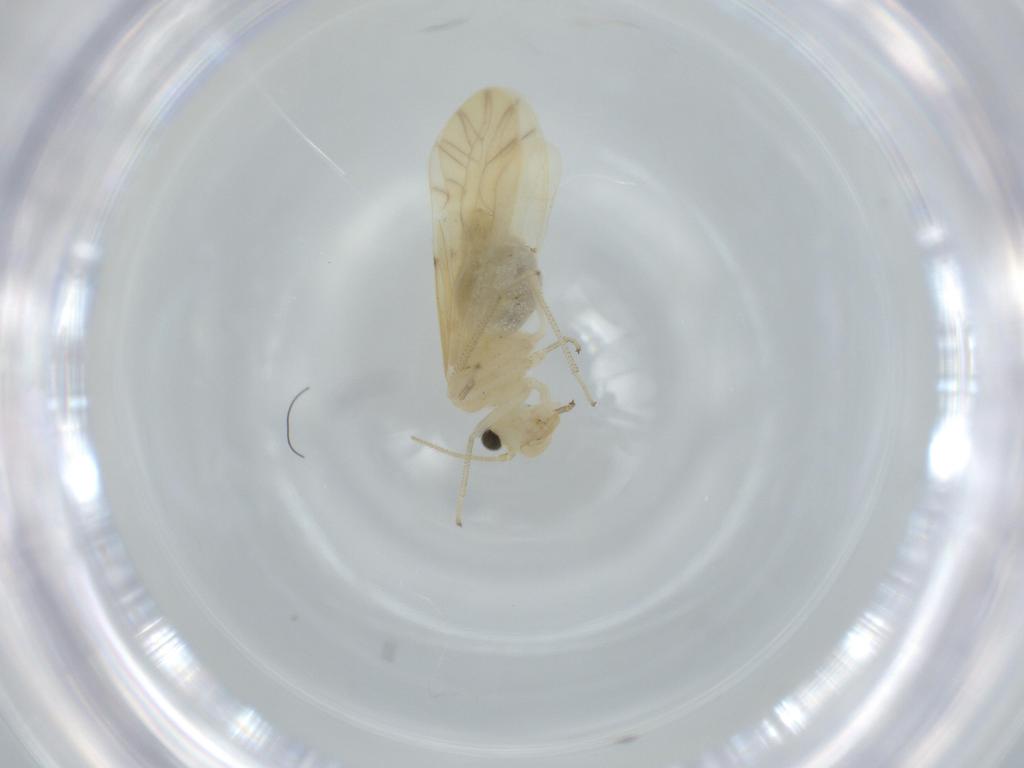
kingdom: Animalia
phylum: Arthropoda
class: Insecta
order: Psocodea
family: Caeciliusidae
